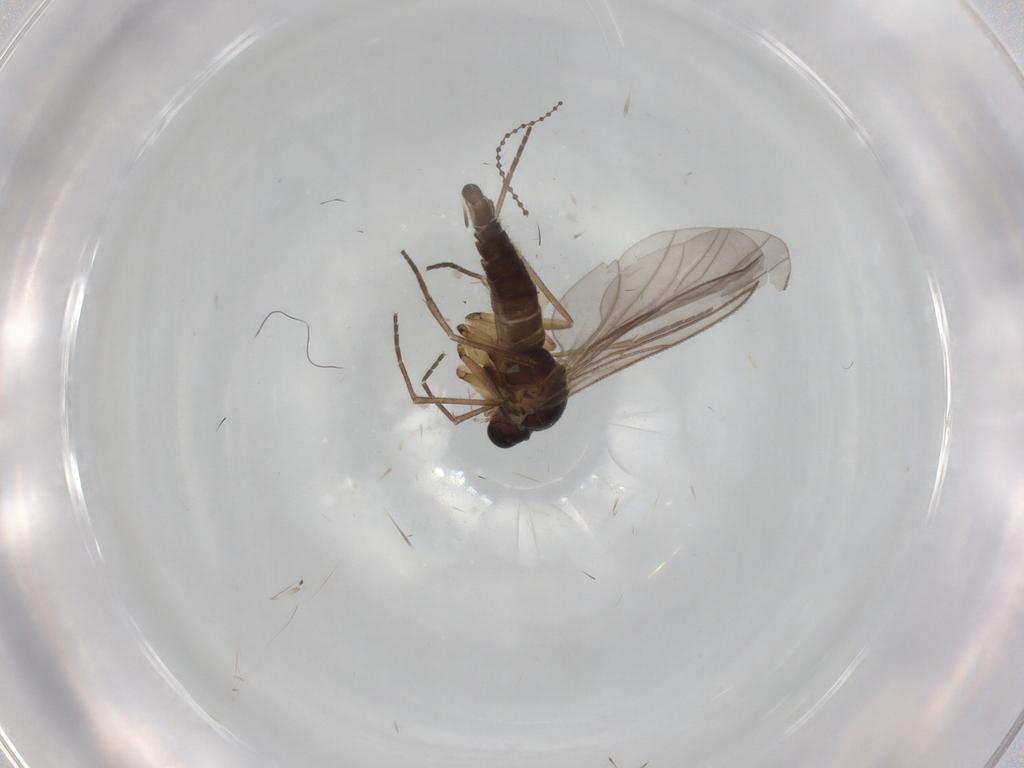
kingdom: Animalia
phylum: Arthropoda
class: Insecta
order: Diptera
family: Sciaridae
